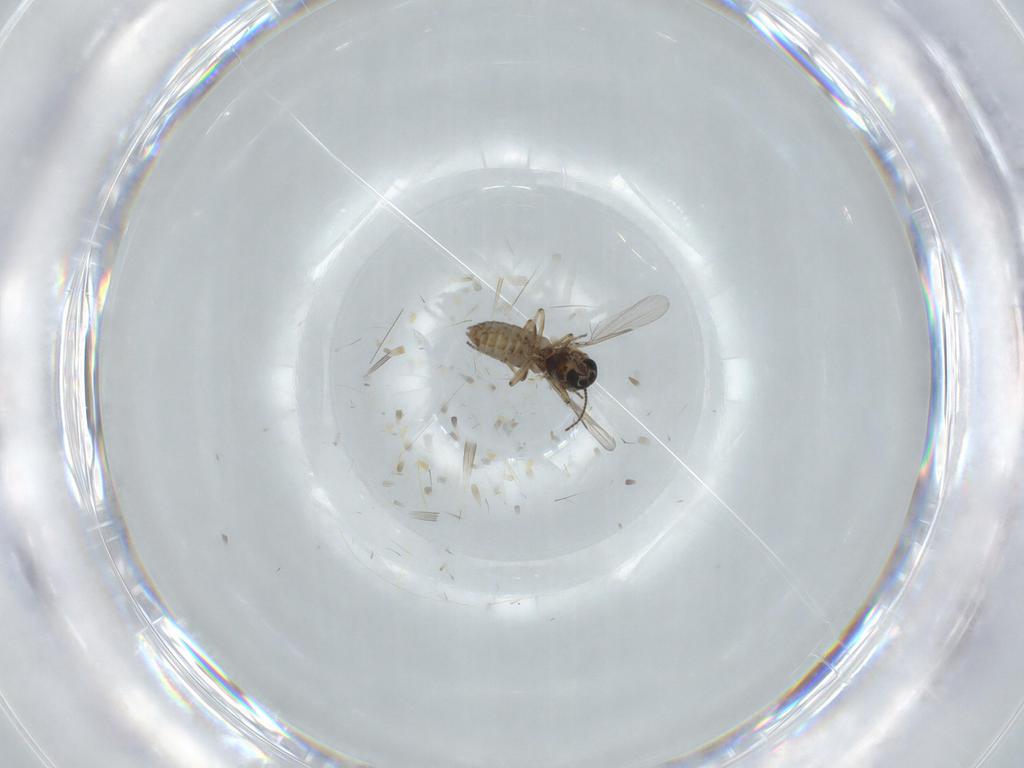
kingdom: Animalia
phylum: Arthropoda
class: Insecta
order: Diptera
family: Ceratopogonidae
